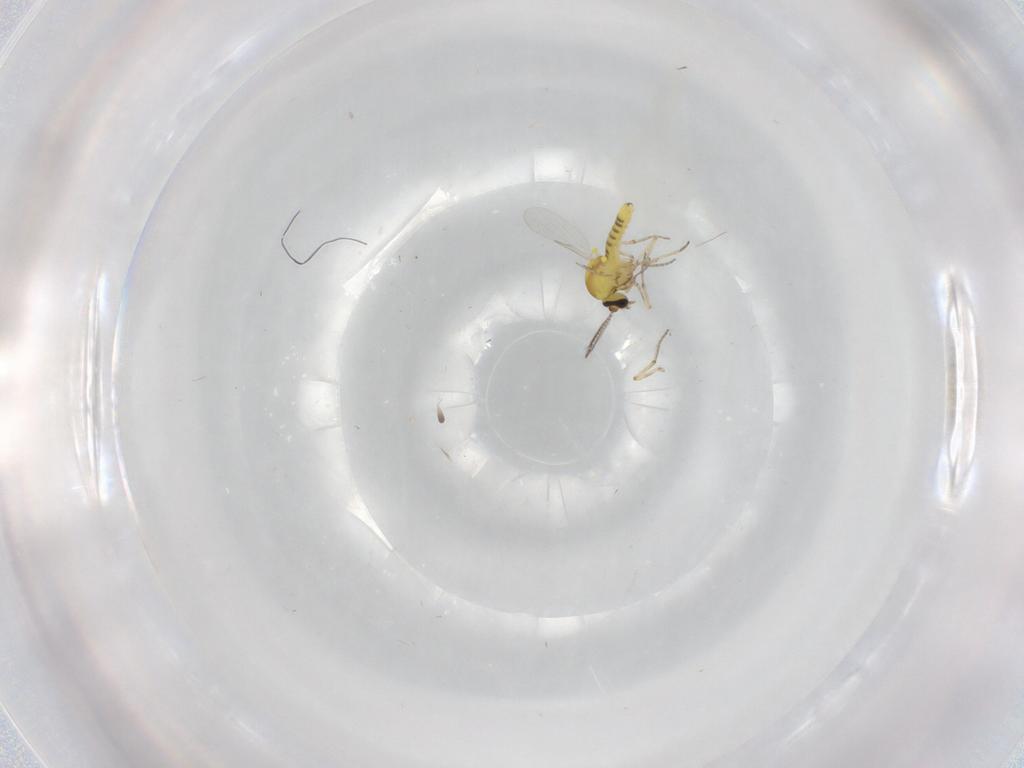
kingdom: Animalia
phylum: Arthropoda
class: Insecta
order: Diptera
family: Ceratopogonidae
